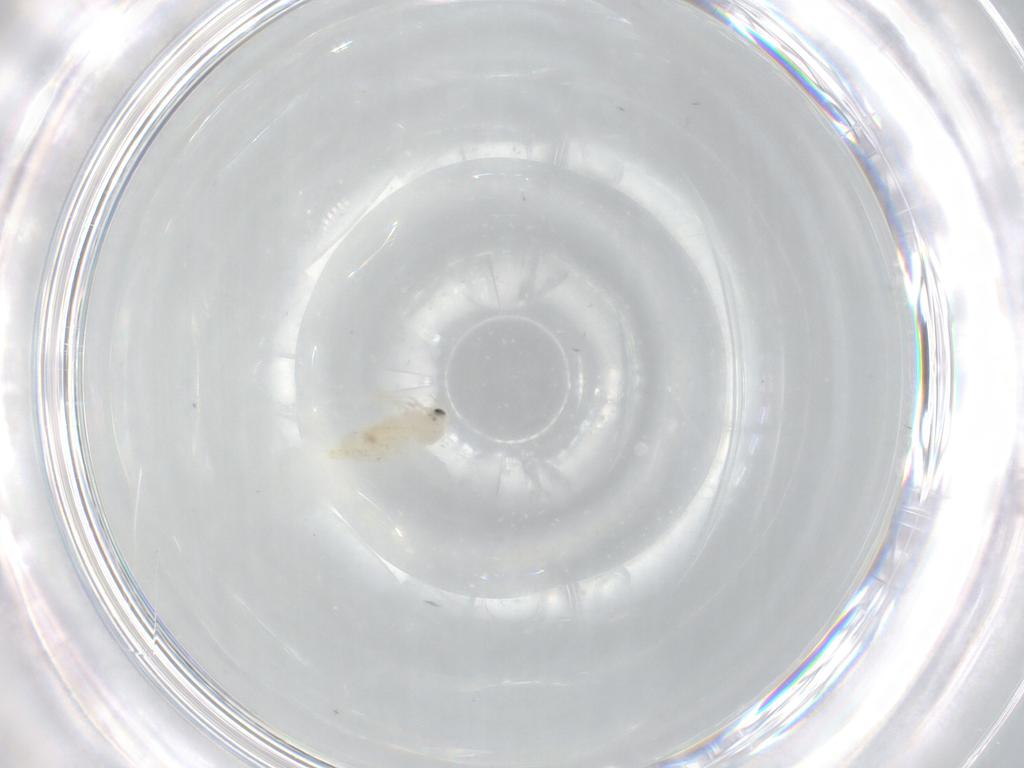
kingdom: Animalia
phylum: Arthropoda
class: Insecta
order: Hemiptera
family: Aleyrodidae
